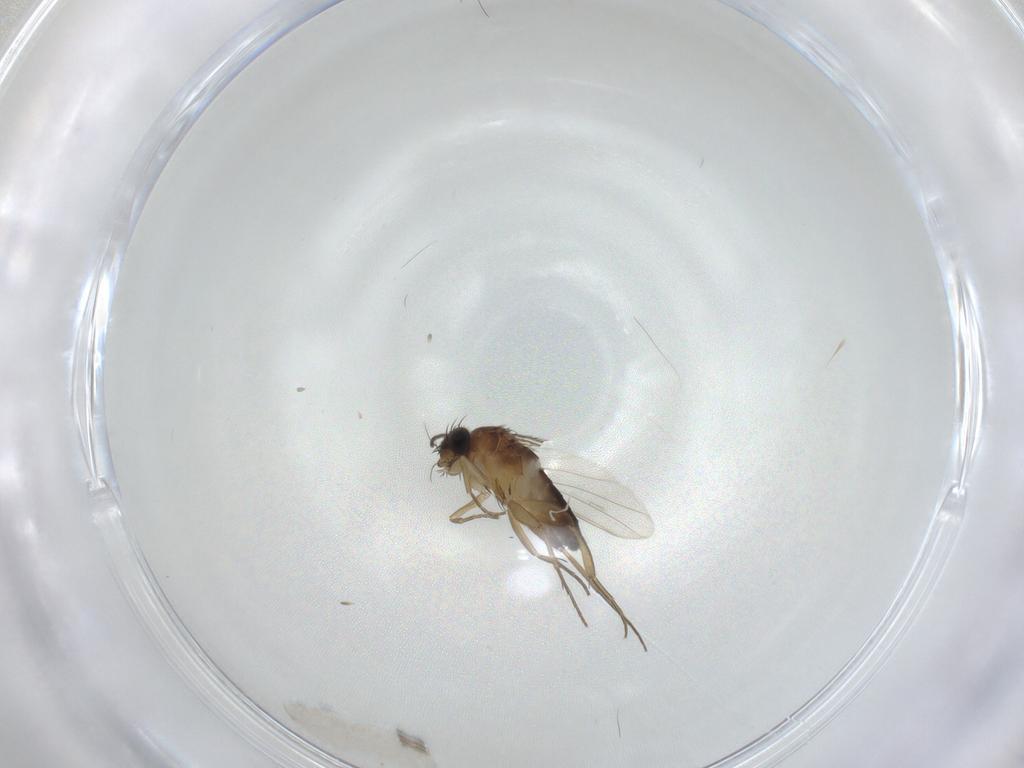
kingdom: Animalia
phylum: Arthropoda
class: Insecta
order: Diptera
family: Phoridae
